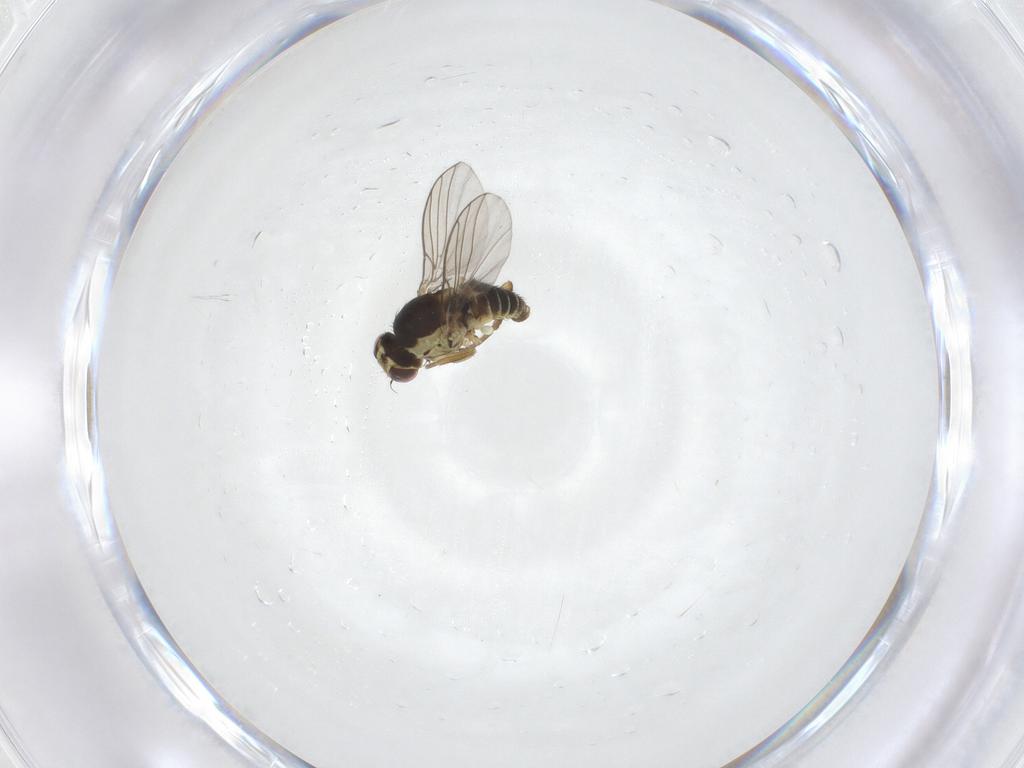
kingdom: Animalia
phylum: Arthropoda
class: Insecta
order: Diptera
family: Agromyzidae
